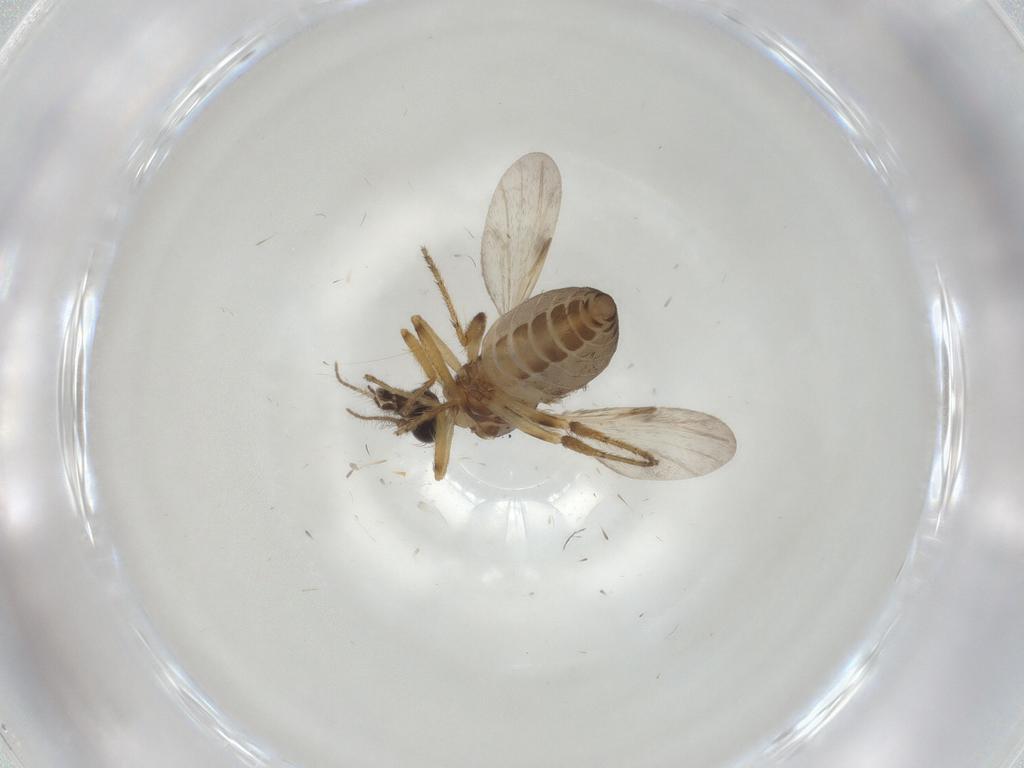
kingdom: Animalia
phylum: Arthropoda
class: Insecta
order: Diptera
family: Ceratopogonidae
